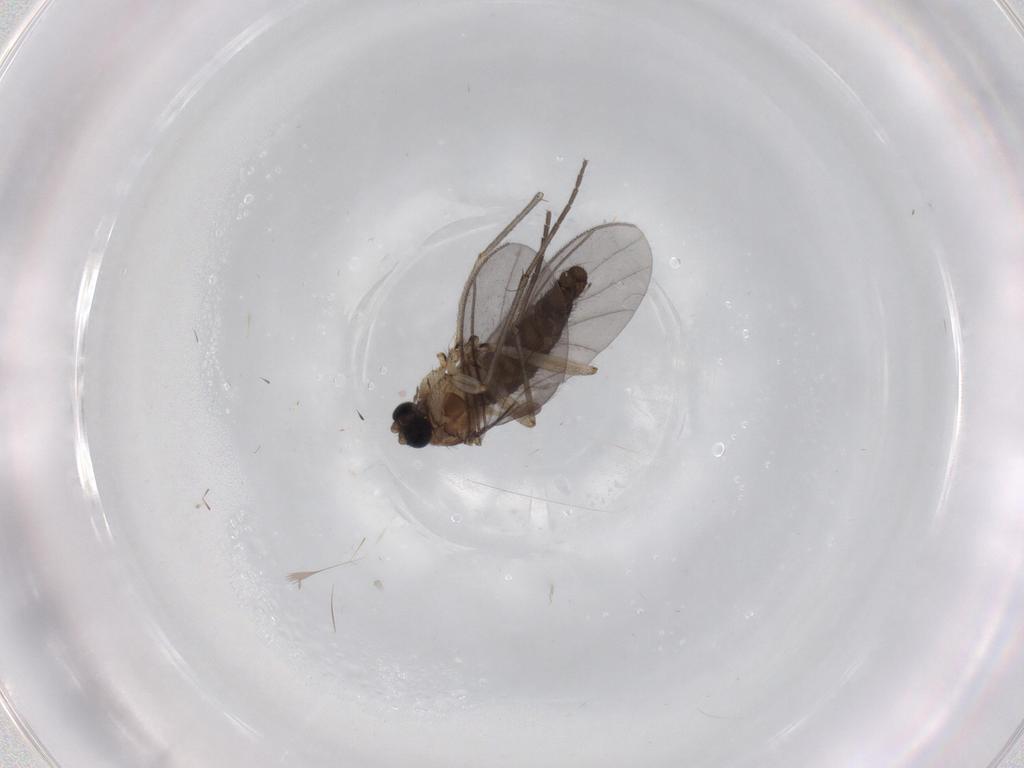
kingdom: Animalia
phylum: Arthropoda
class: Insecta
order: Diptera
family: Sciaridae
